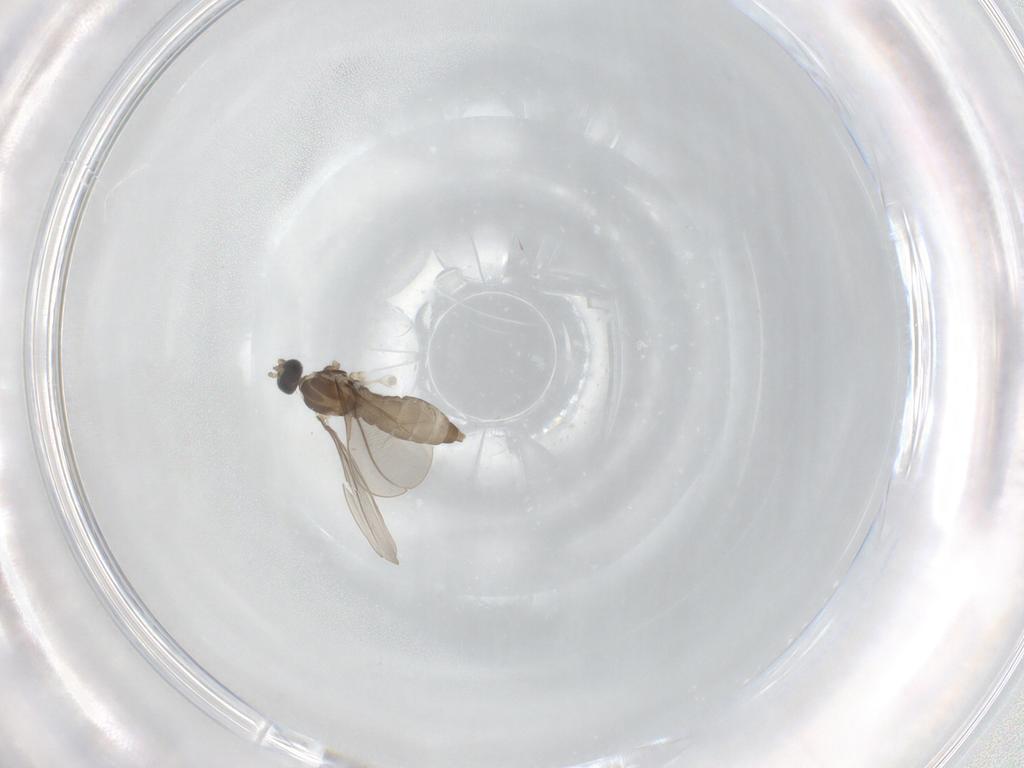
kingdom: Animalia
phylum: Arthropoda
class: Insecta
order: Diptera
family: Cecidomyiidae
